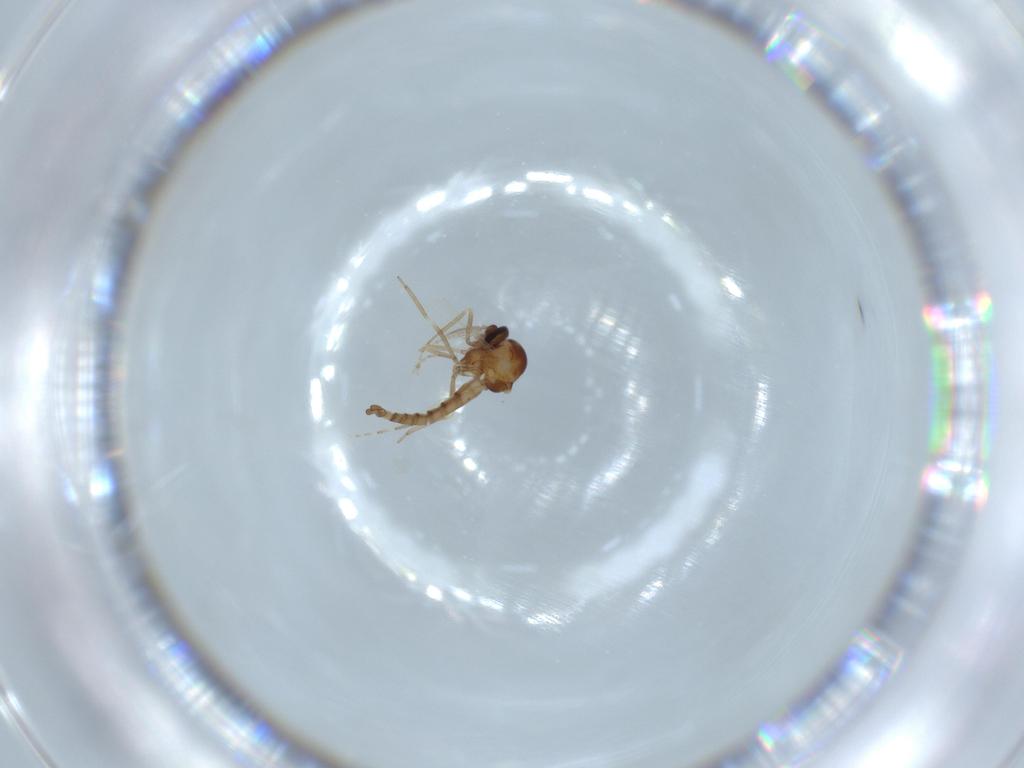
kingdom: Animalia
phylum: Arthropoda
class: Insecta
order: Diptera
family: Ceratopogonidae
